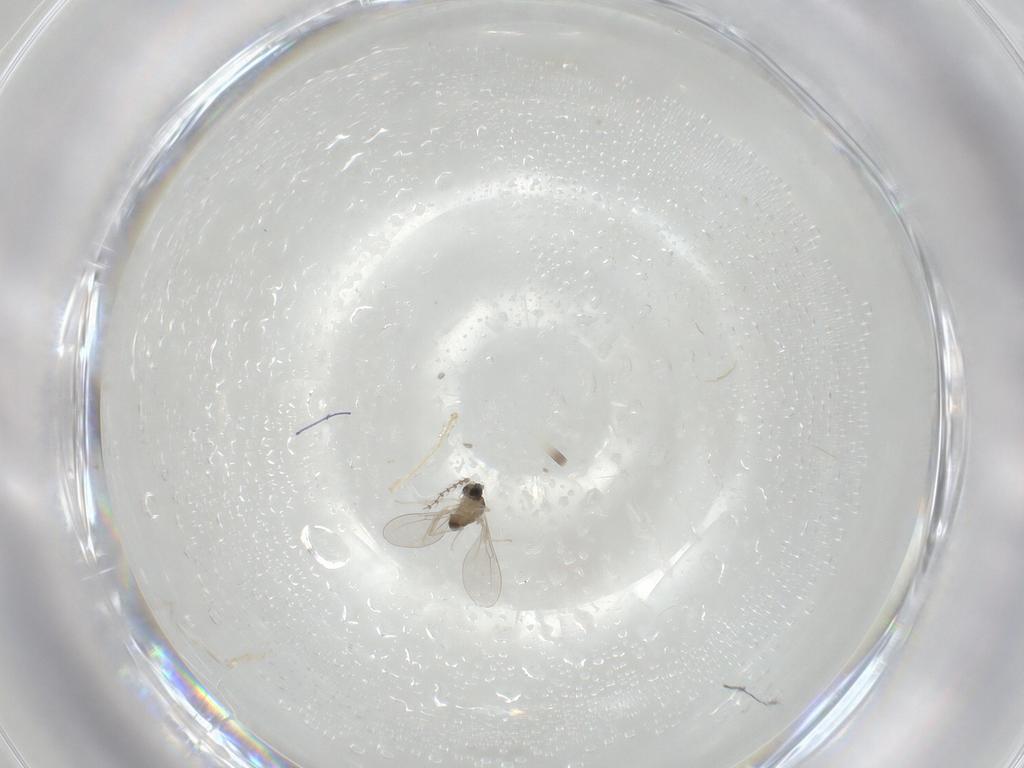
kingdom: Animalia
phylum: Arthropoda
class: Insecta
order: Diptera
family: Cecidomyiidae
